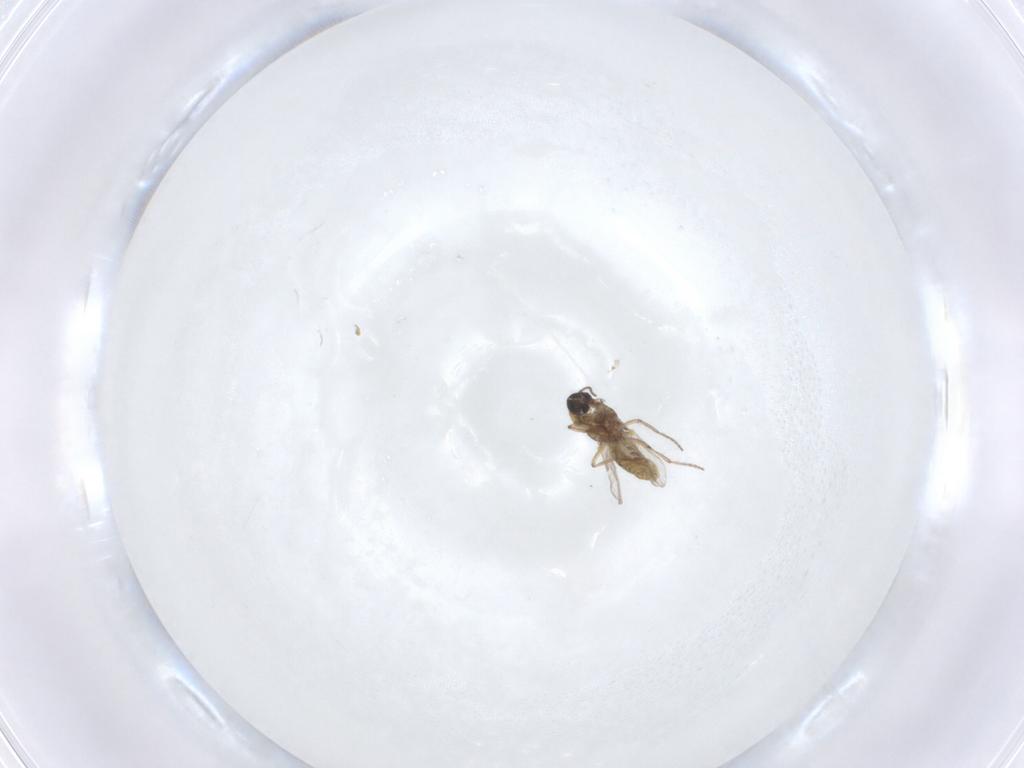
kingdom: Animalia
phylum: Arthropoda
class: Insecta
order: Diptera
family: Ceratopogonidae
